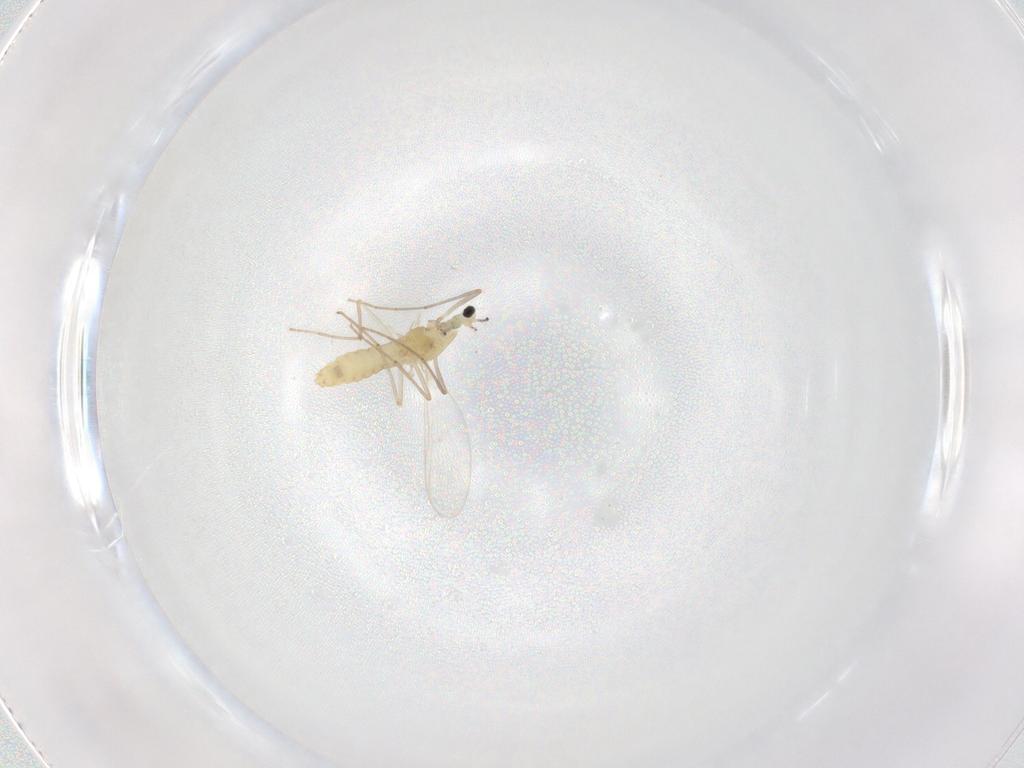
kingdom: Animalia
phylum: Arthropoda
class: Insecta
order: Diptera
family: Chironomidae
